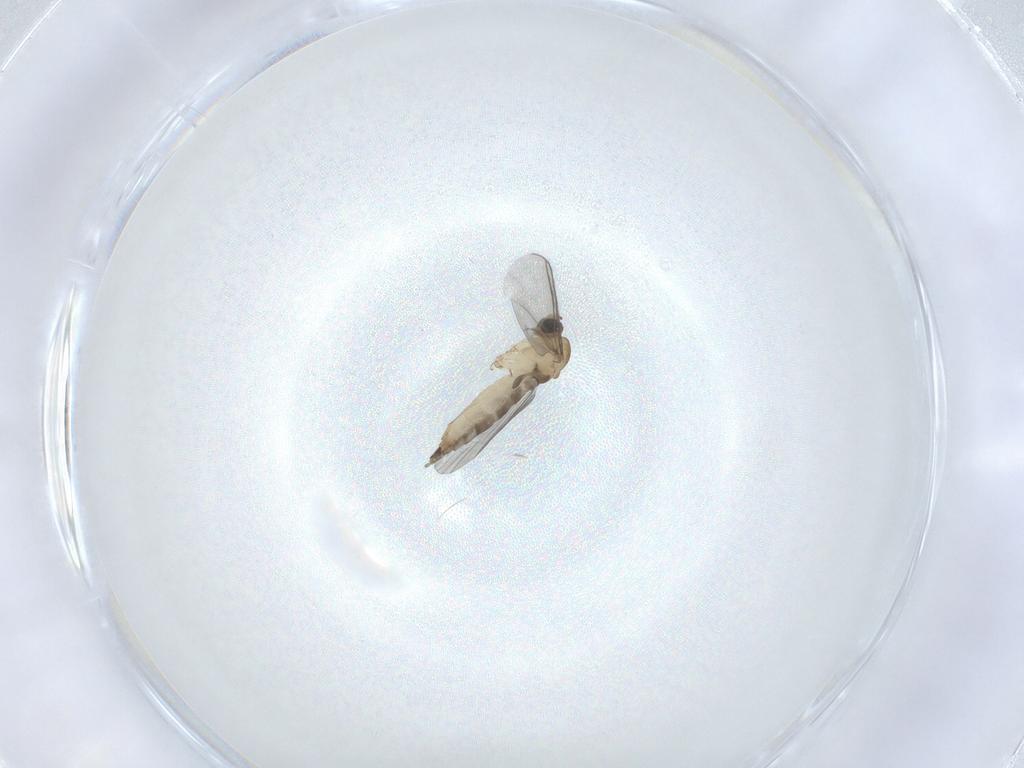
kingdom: Animalia
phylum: Arthropoda
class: Insecta
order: Diptera
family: Sciaridae
